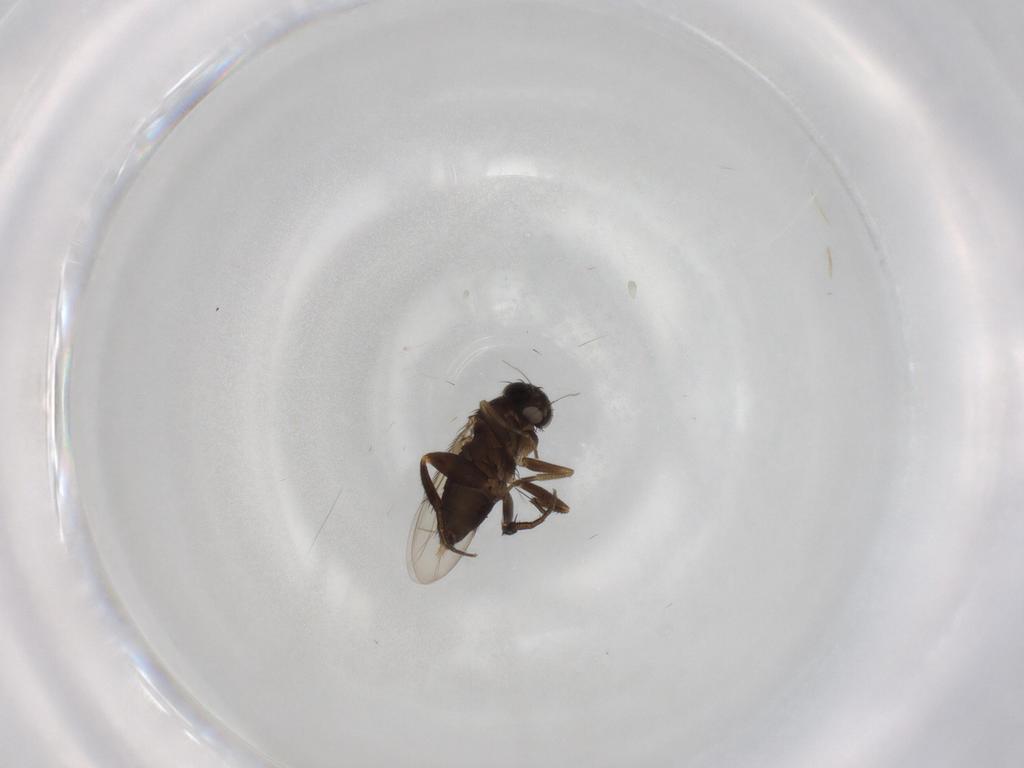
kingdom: Animalia
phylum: Arthropoda
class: Insecta
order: Diptera
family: Phoridae
